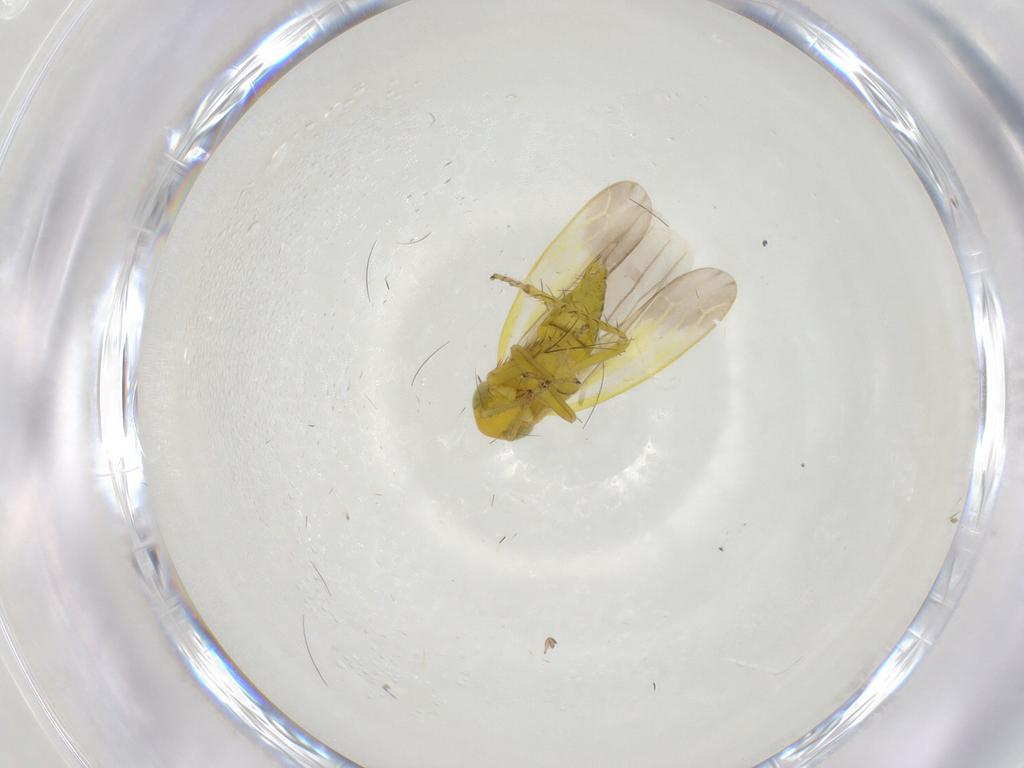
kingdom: Animalia
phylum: Arthropoda
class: Insecta
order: Hemiptera
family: Cicadellidae
